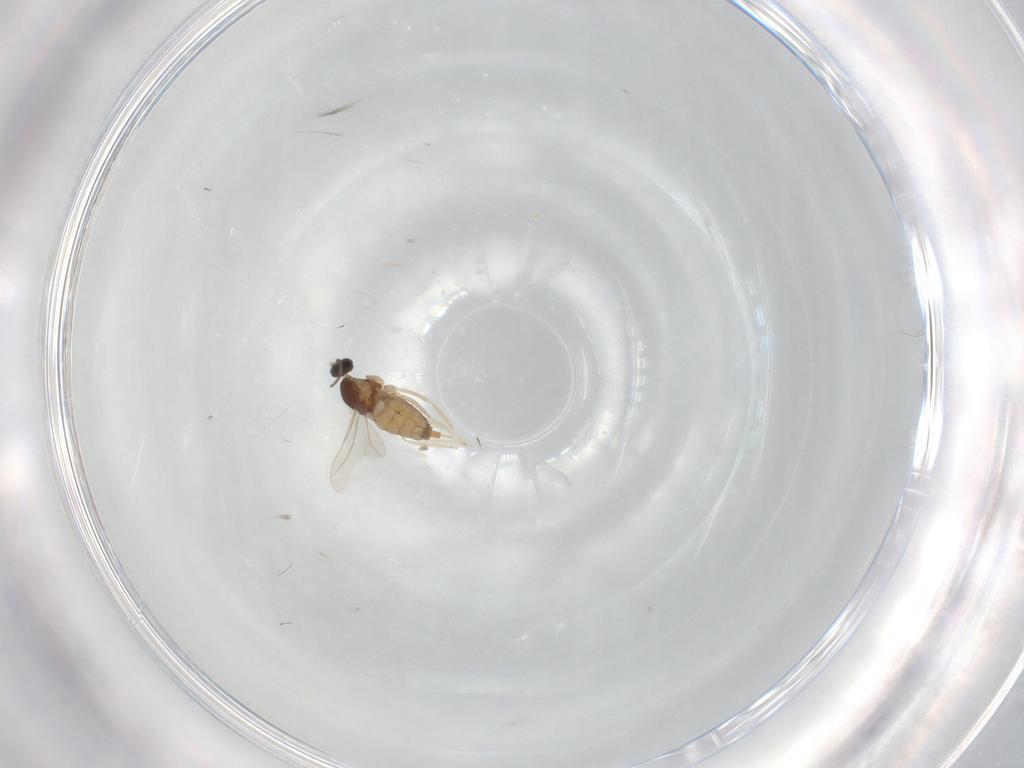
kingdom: Animalia
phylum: Arthropoda
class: Insecta
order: Diptera
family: Cecidomyiidae
